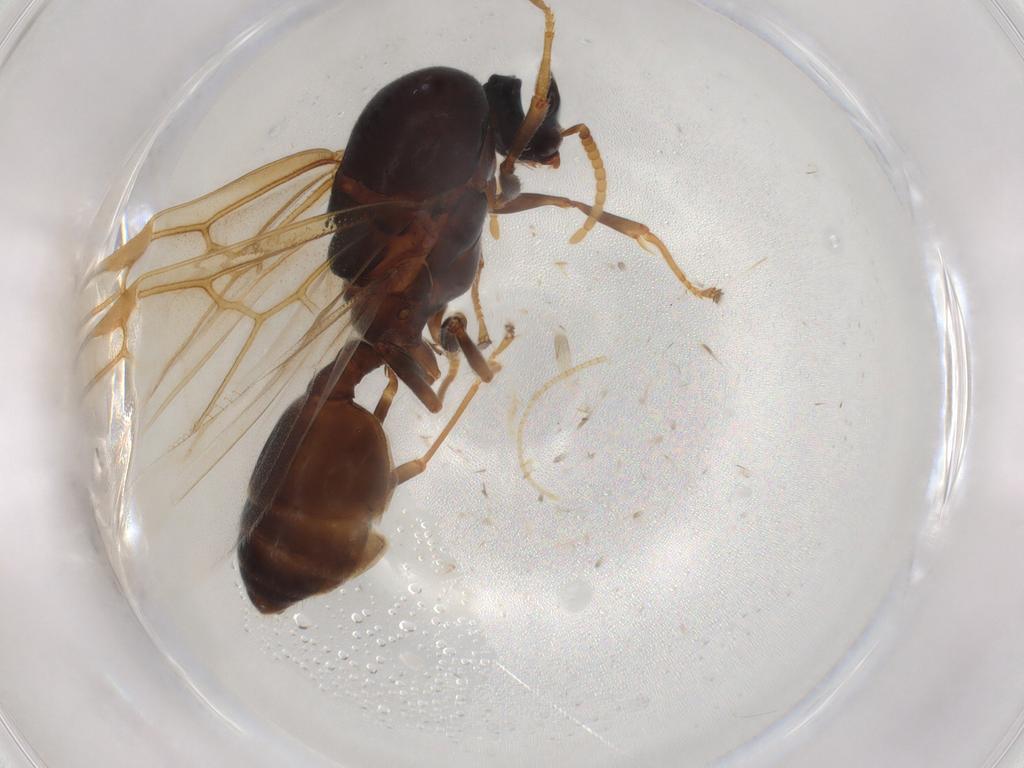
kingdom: Animalia
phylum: Arthropoda
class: Insecta
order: Hymenoptera
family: Formicidae
